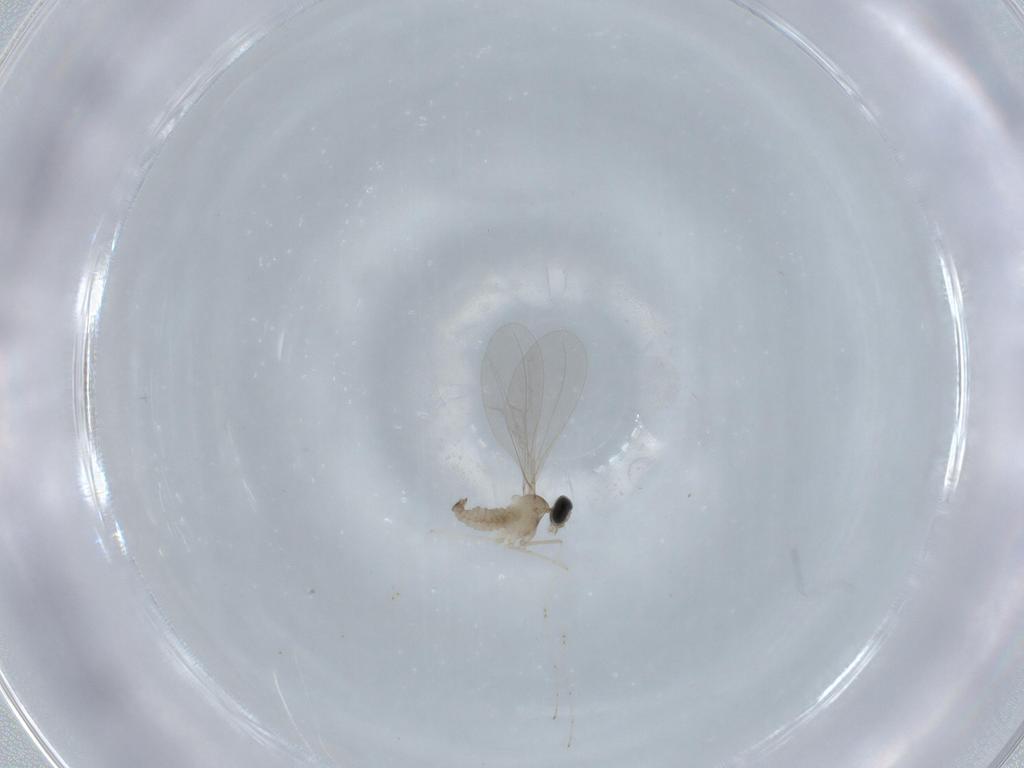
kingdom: Animalia
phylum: Arthropoda
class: Insecta
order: Diptera
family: Cecidomyiidae
